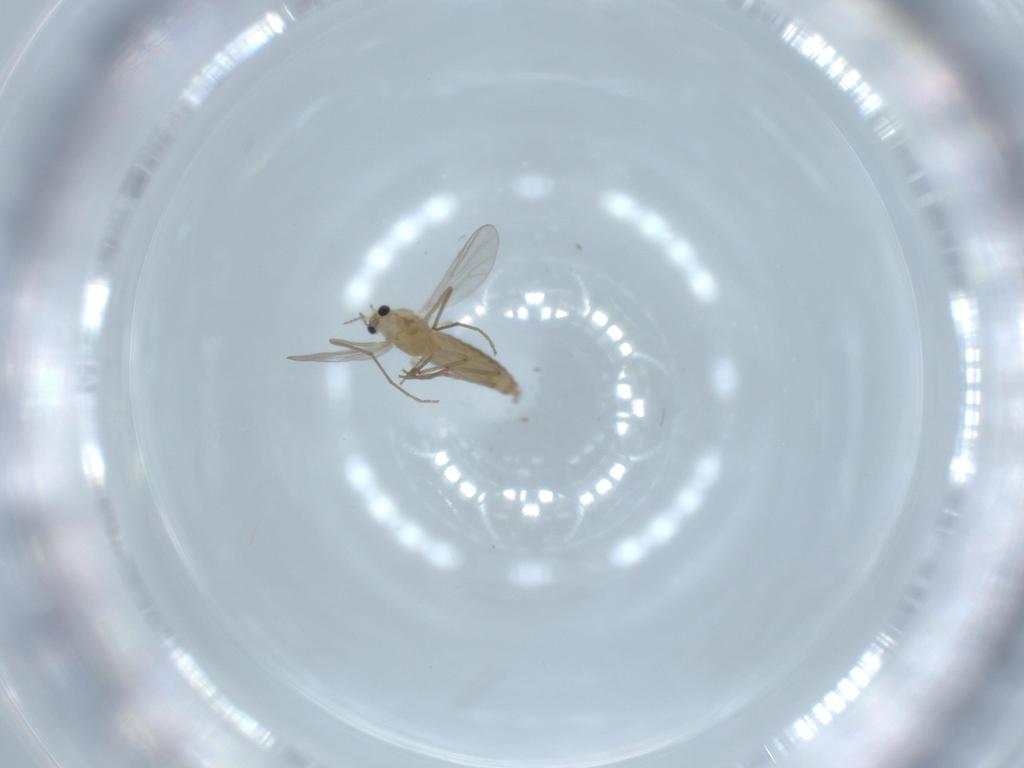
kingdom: Animalia
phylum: Arthropoda
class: Insecta
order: Diptera
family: Chironomidae
